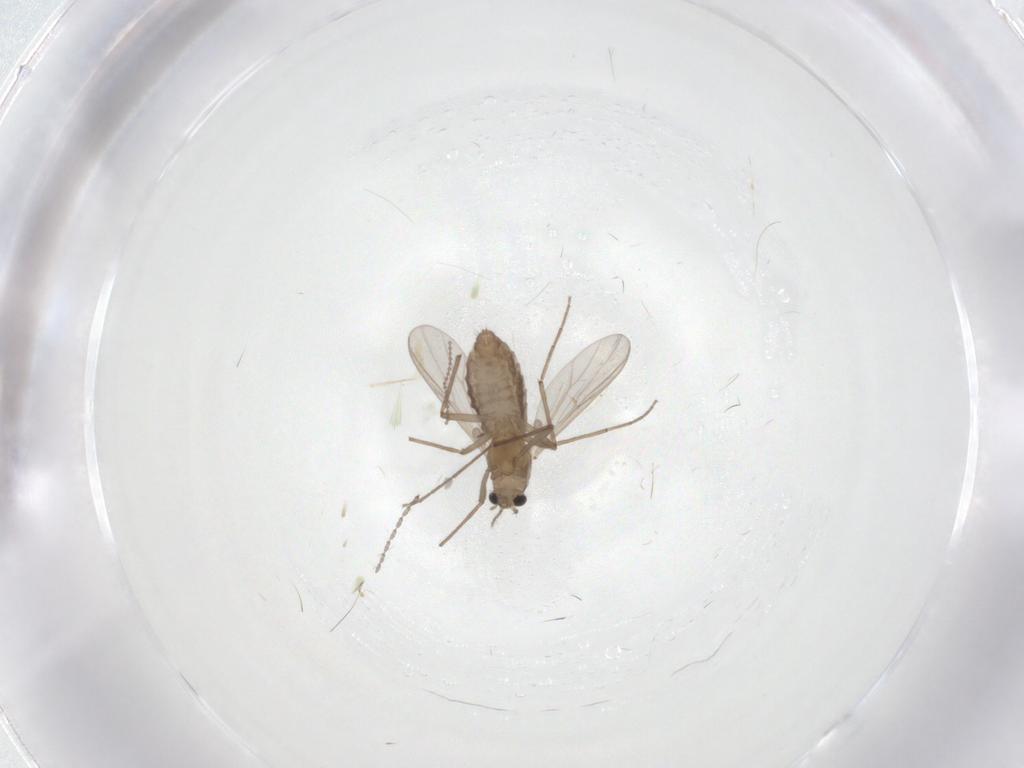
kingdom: Animalia
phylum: Arthropoda
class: Insecta
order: Diptera
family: Chironomidae
